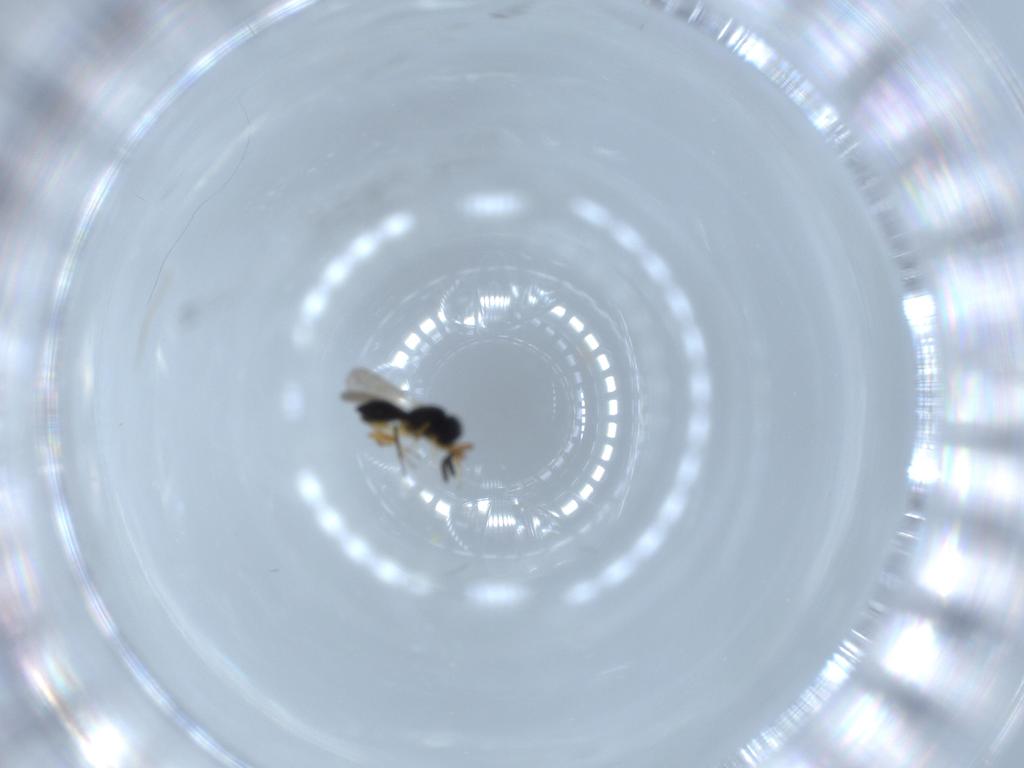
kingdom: Animalia
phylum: Arthropoda
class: Insecta
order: Hymenoptera
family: Scelionidae
